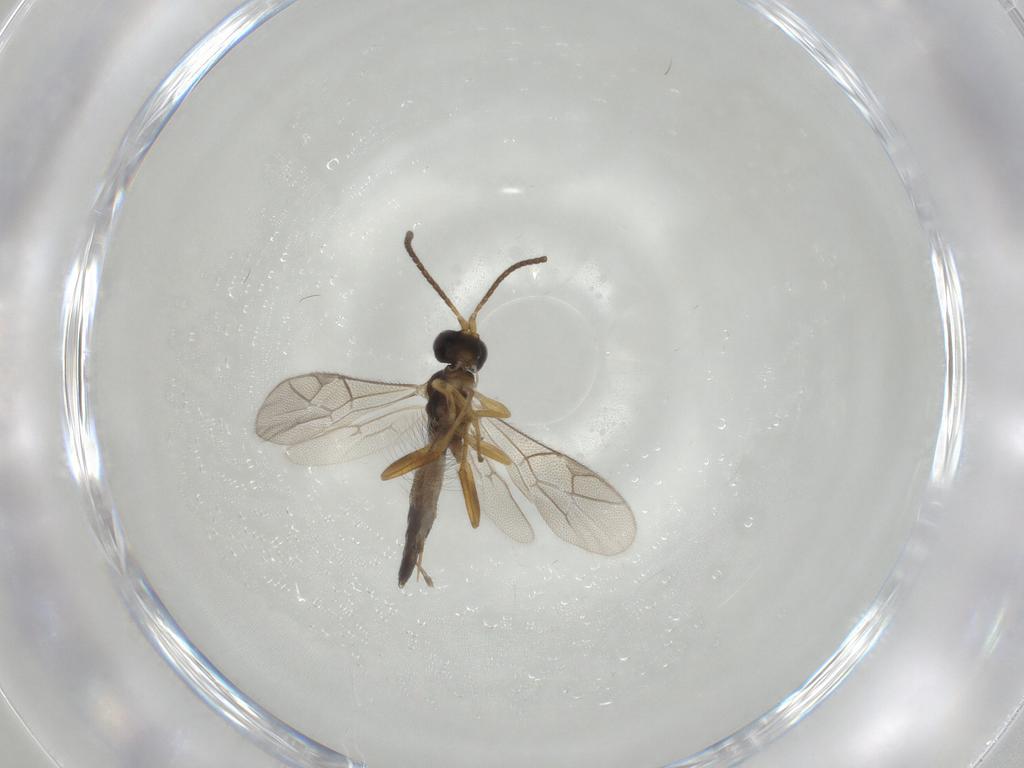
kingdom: Animalia
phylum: Arthropoda
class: Insecta
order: Hymenoptera
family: Ichneumonidae
